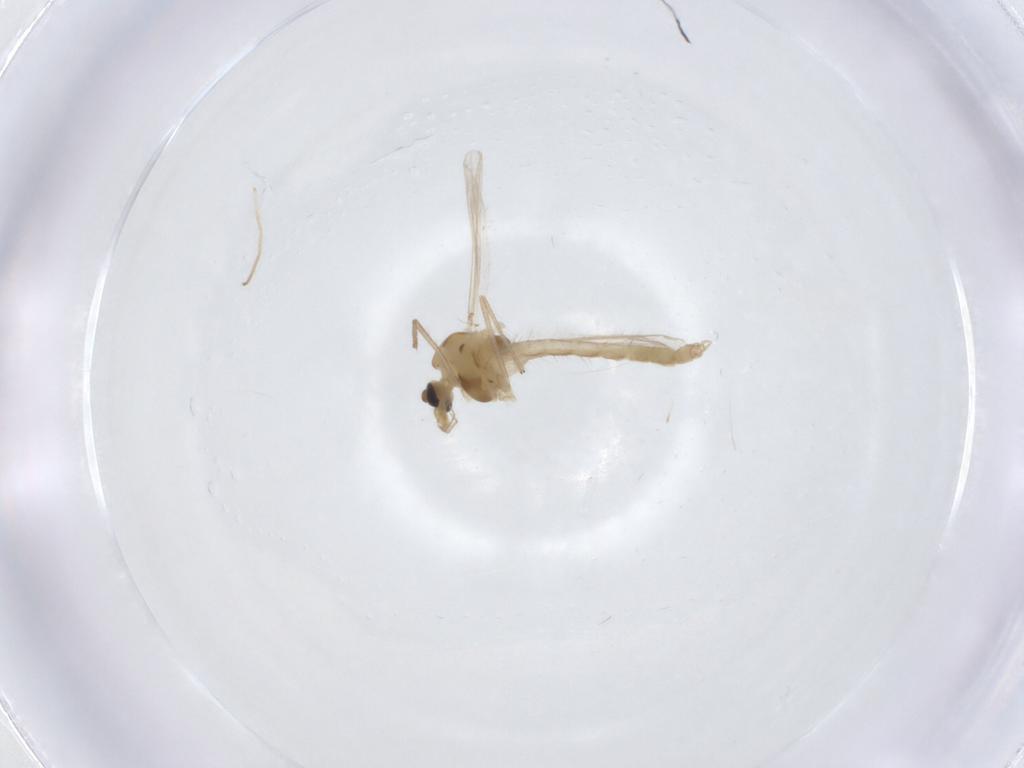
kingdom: Animalia
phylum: Arthropoda
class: Insecta
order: Diptera
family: Chironomidae
